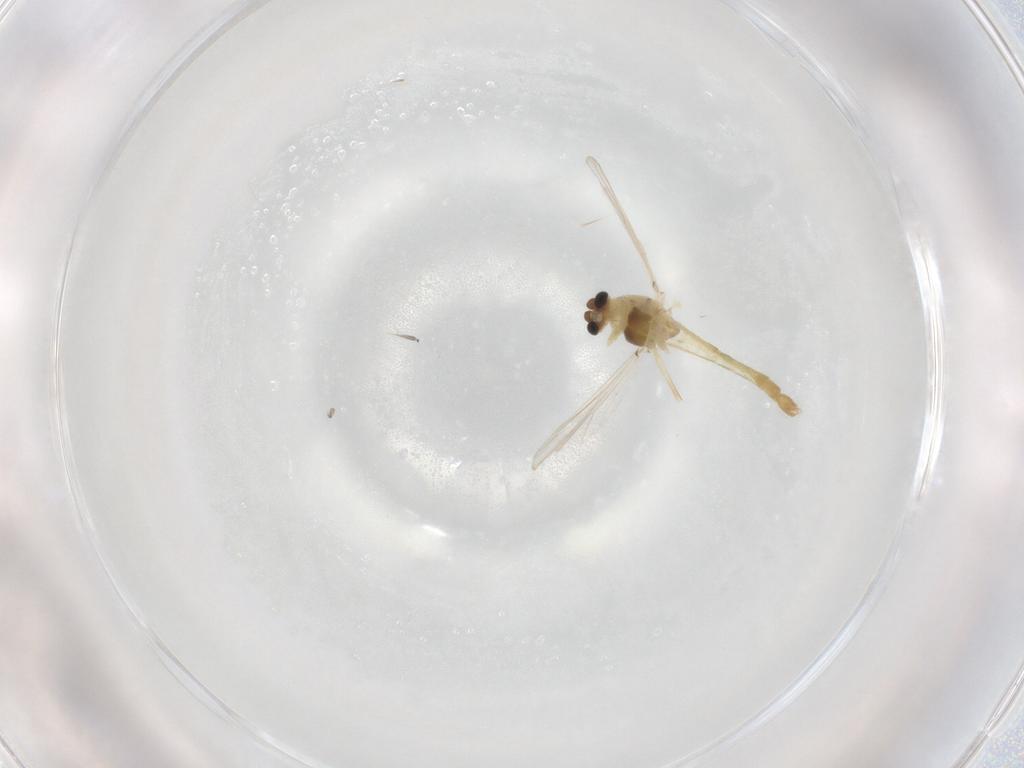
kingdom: Animalia
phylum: Arthropoda
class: Insecta
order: Diptera
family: Chironomidae
